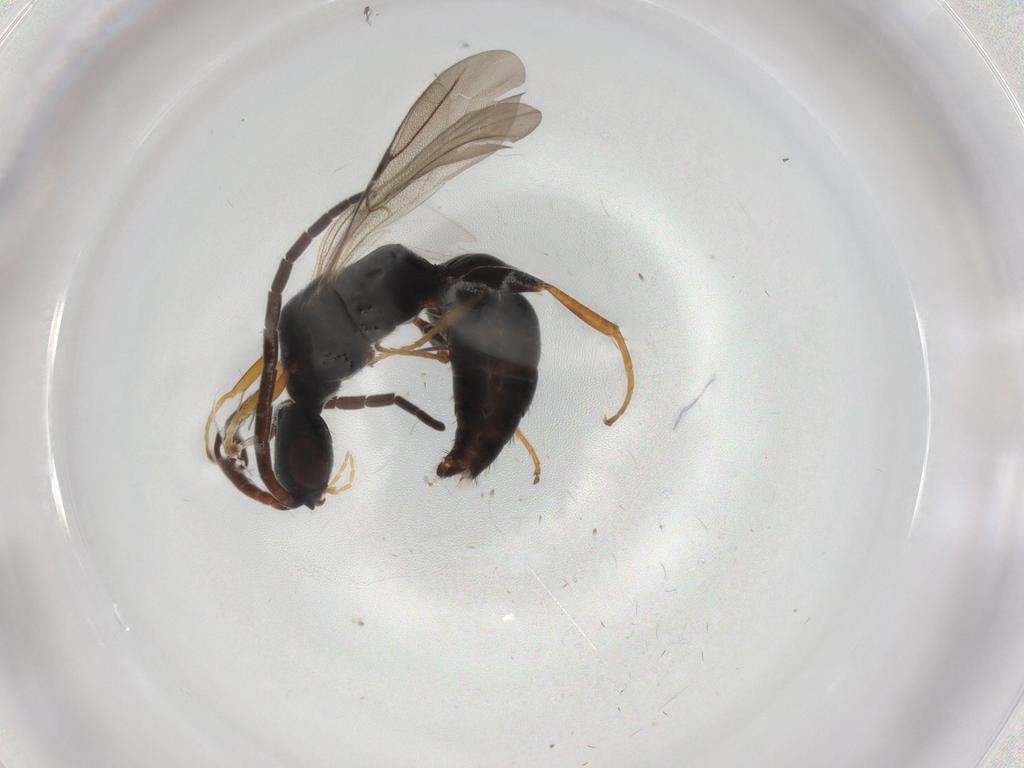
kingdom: Animalia
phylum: Arthropoda
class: Insecta
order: Hymenoptera
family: Bethylidae
